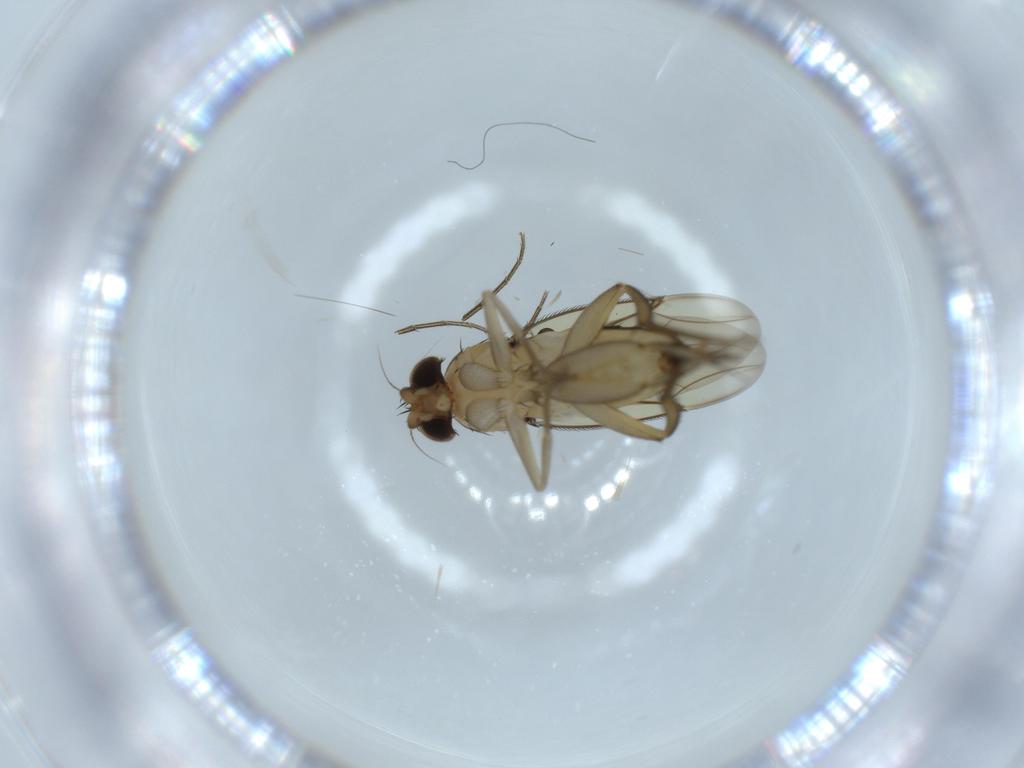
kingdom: Animalia
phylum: Arthropoda
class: Insecta
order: Diptera
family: Phoridae
